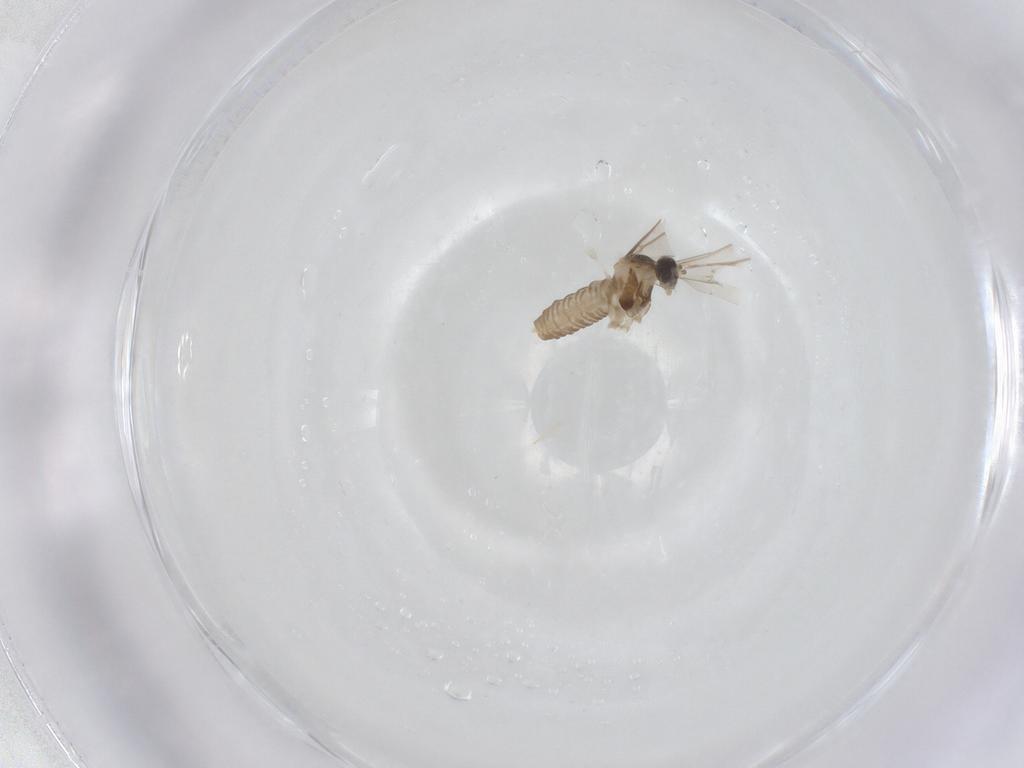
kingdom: Animalia
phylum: Arthropoda
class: Insecta
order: Diptera
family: Cecidomyiidae
